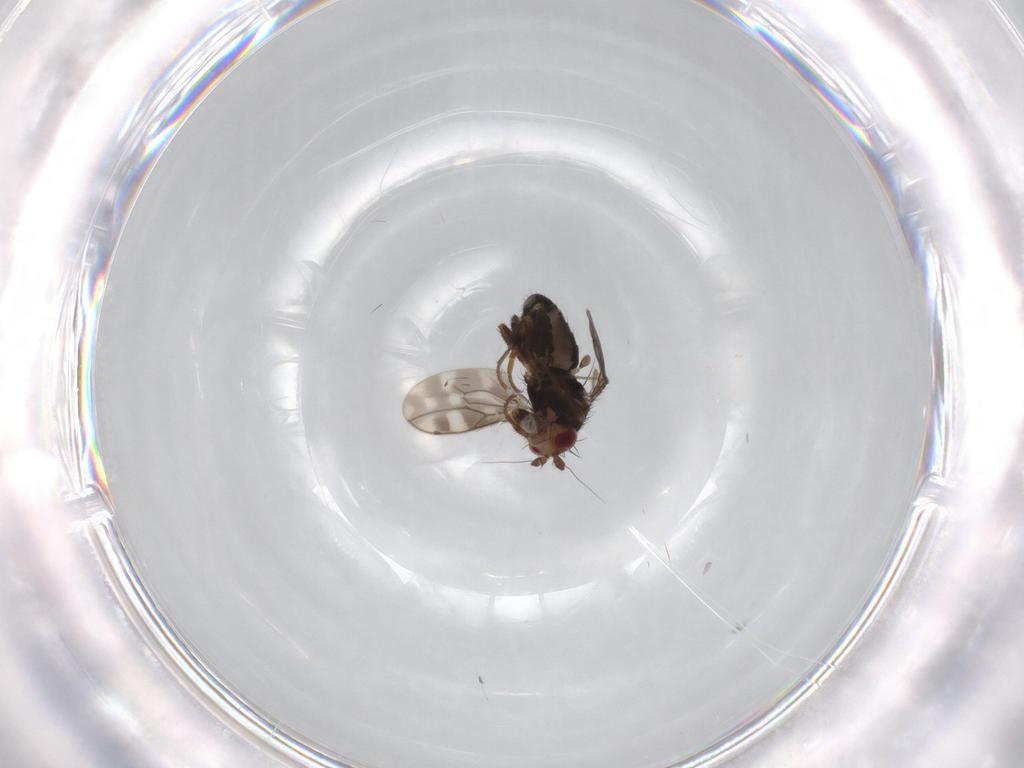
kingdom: Animalia
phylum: Arthropoda
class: Insecta
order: Diptera
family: Sphaeroceridae
